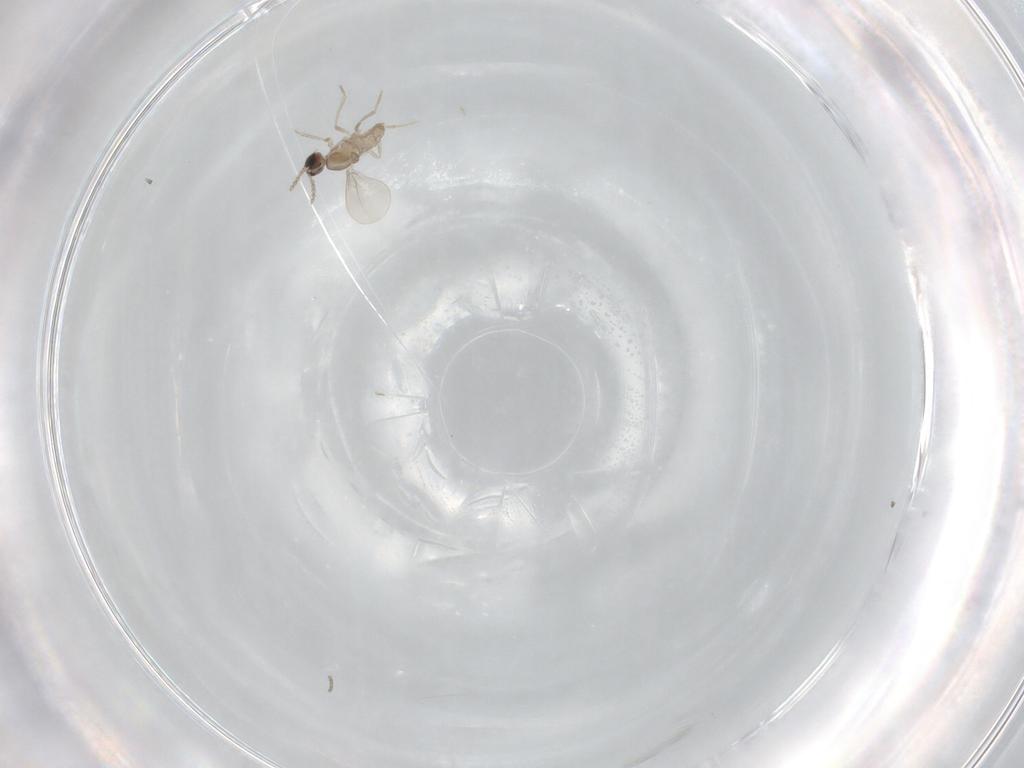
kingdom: Animalia
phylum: Arthropoda
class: Insecta
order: Diptera
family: Cecidomyiidae
